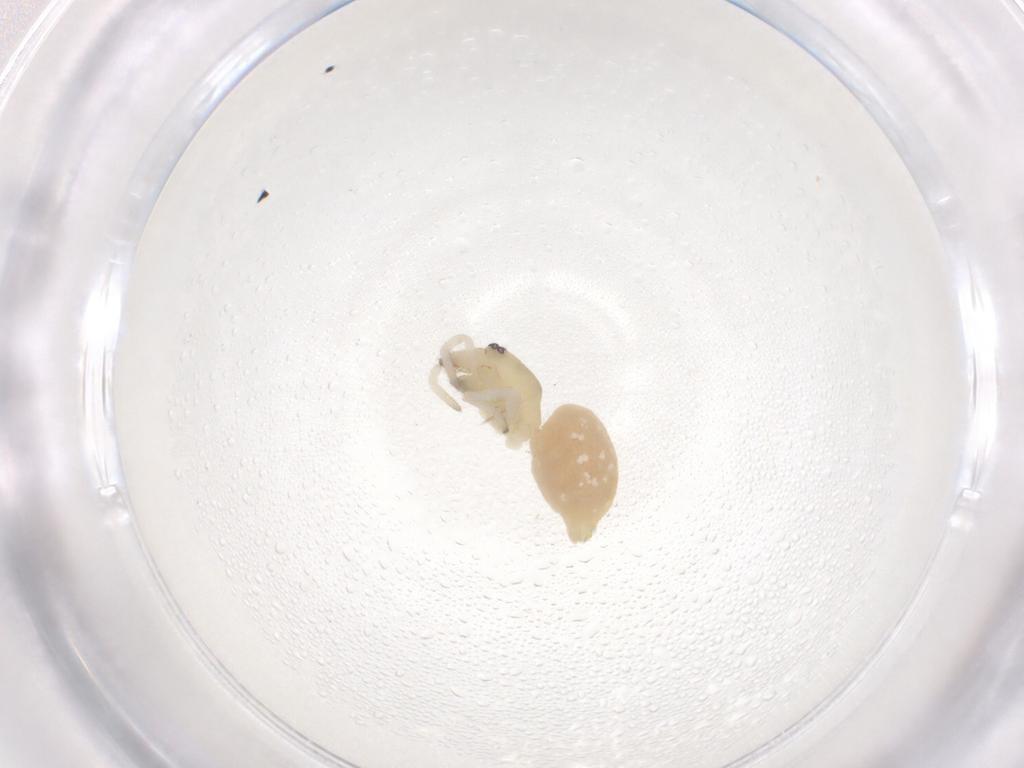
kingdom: Animalia
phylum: Arthropoda
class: Arachnida
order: Araneae
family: Cheiracanthiidae
